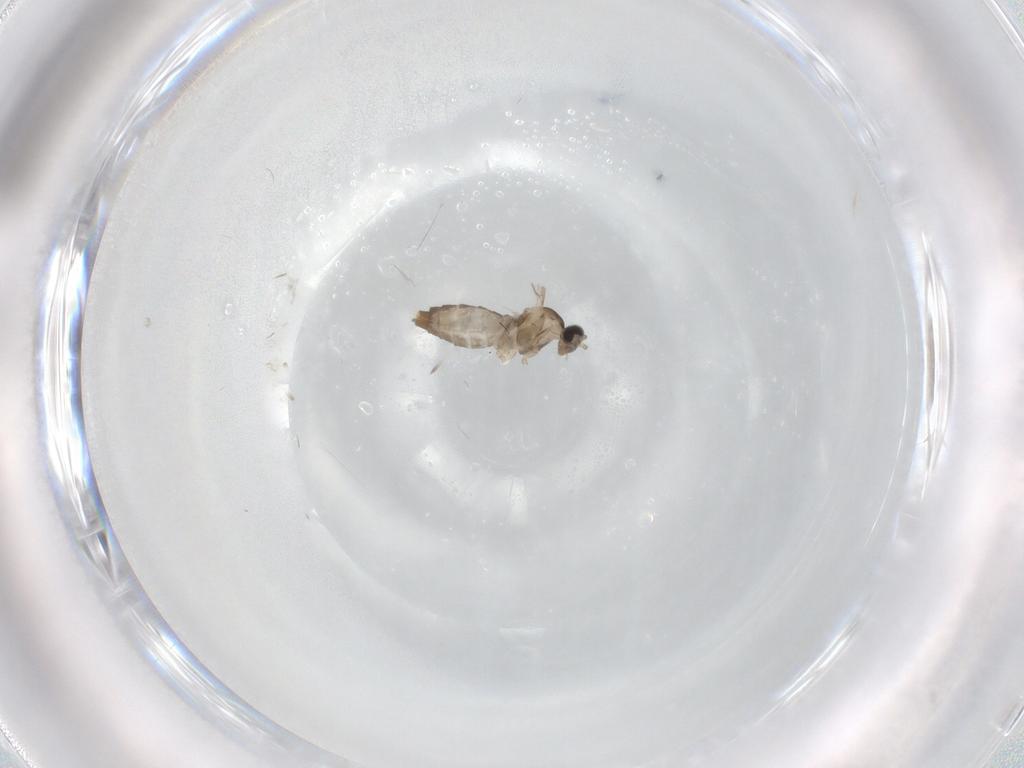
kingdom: Animalia
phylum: Arthropoda
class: Insecta
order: Diptera
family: Cecidomyiidae
